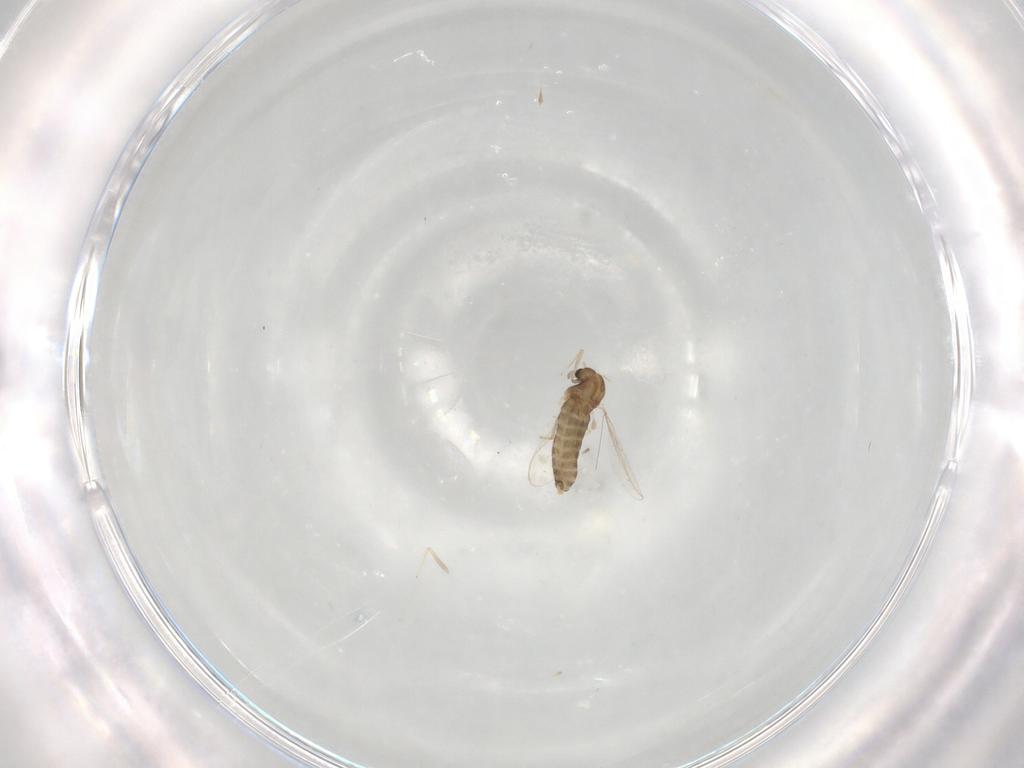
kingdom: Animalia
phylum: Arthropoda
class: Insecta
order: Diptera
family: Chironomidae
